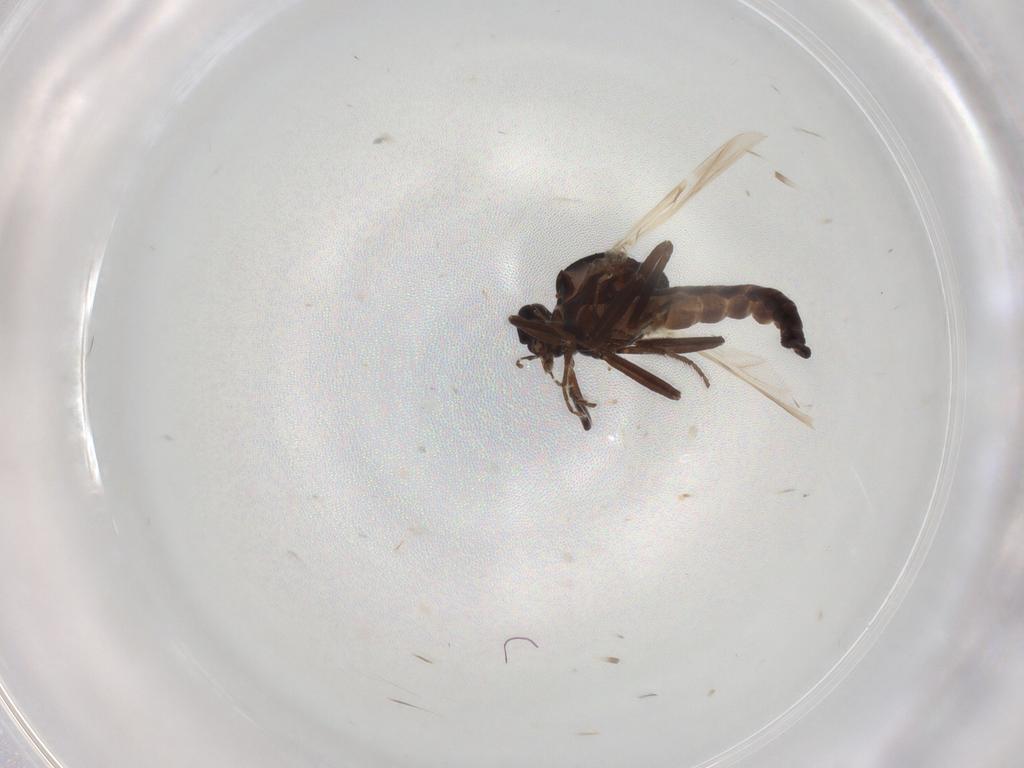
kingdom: Animalia
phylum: Arthropoda
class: Insecta
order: Diptera
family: Ceratopogonidae
